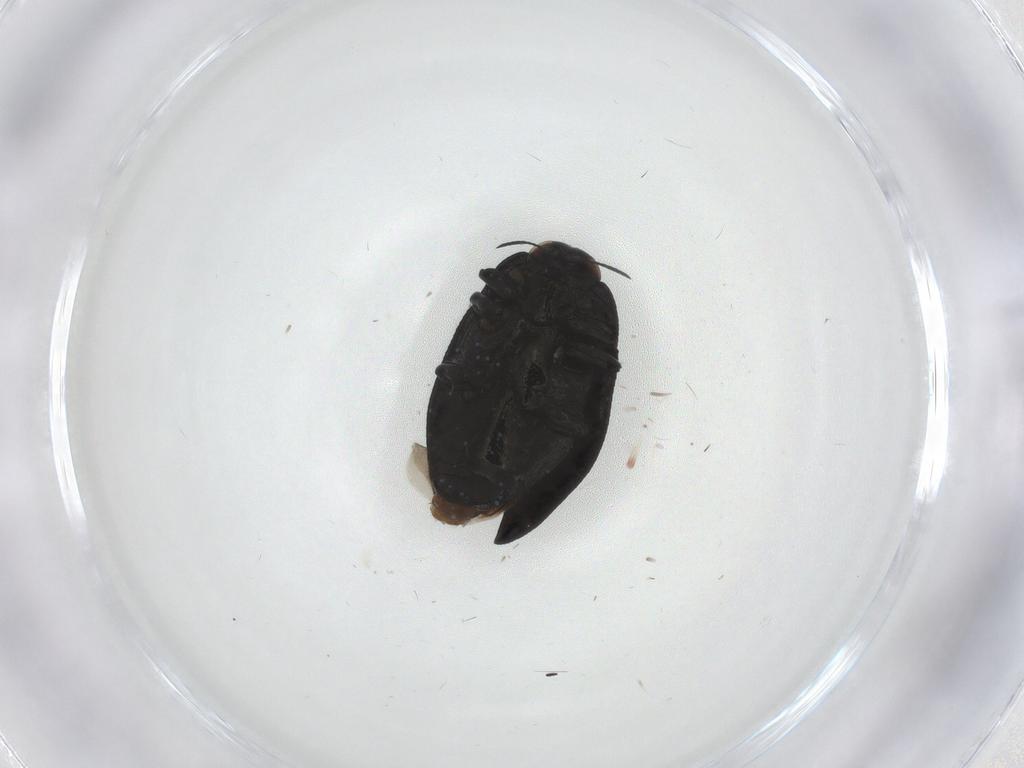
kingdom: Animalia
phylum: Arthropoda
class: Insecta
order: Coleoptera
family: Buprestidae
